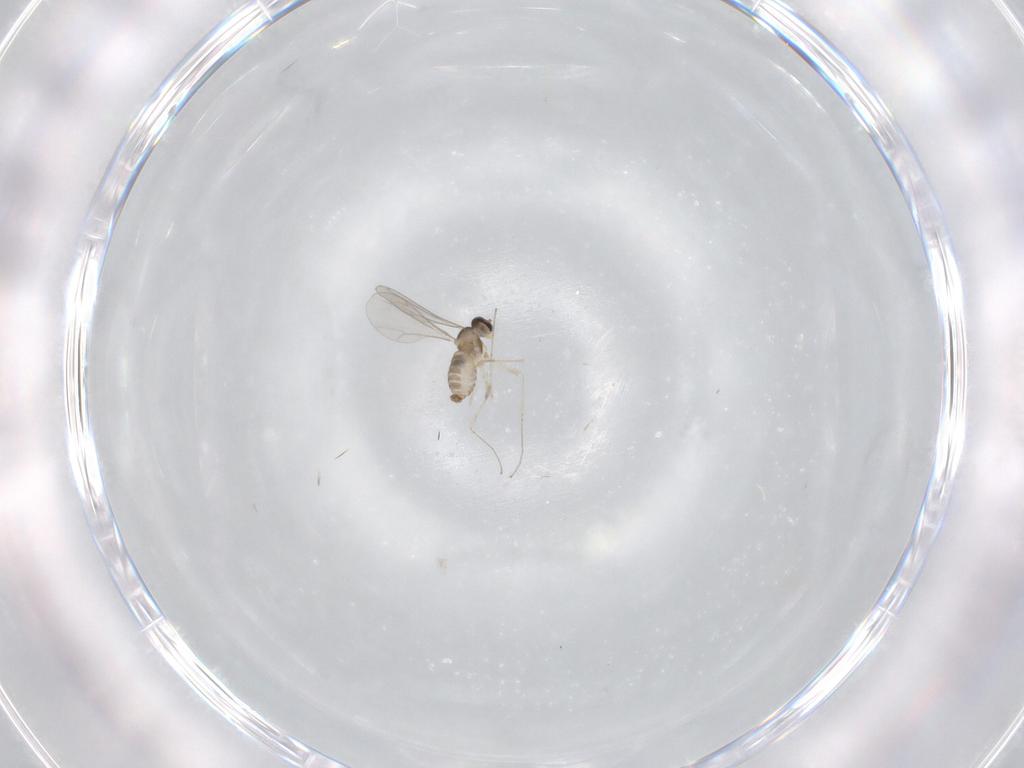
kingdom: Animalia
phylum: Arthropoda
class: Insecta
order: Diptera
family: Cecidomyiidae
